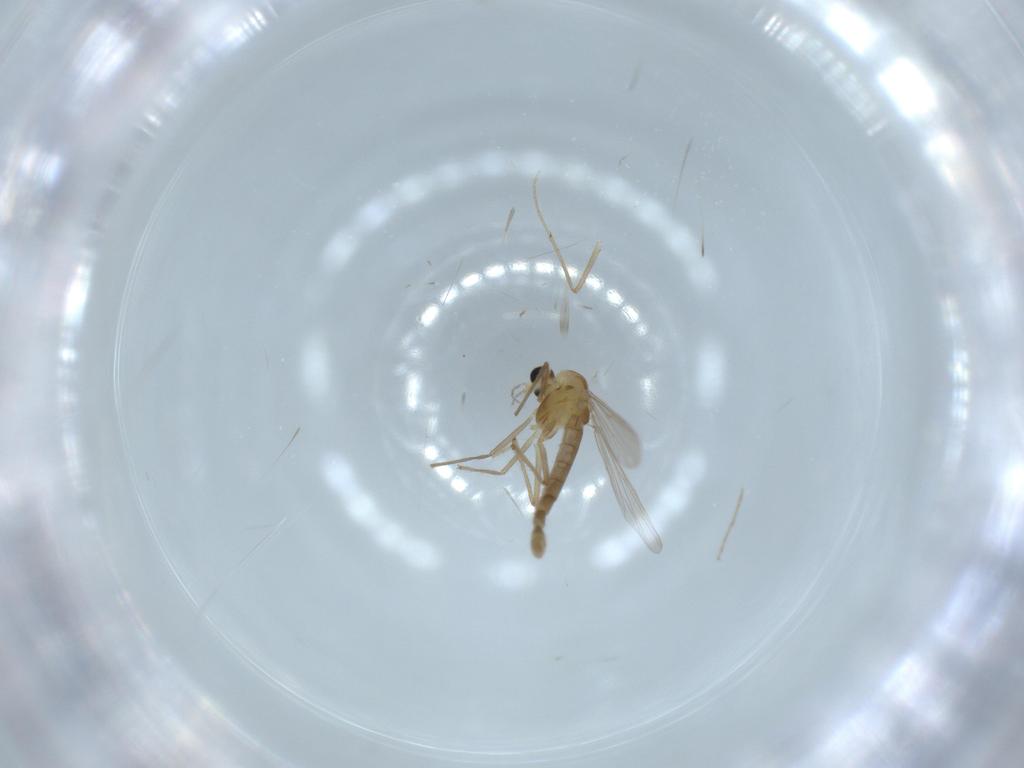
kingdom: Animalia
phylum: Arthropoda
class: Insecta
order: Diptera
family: Chironomidae
